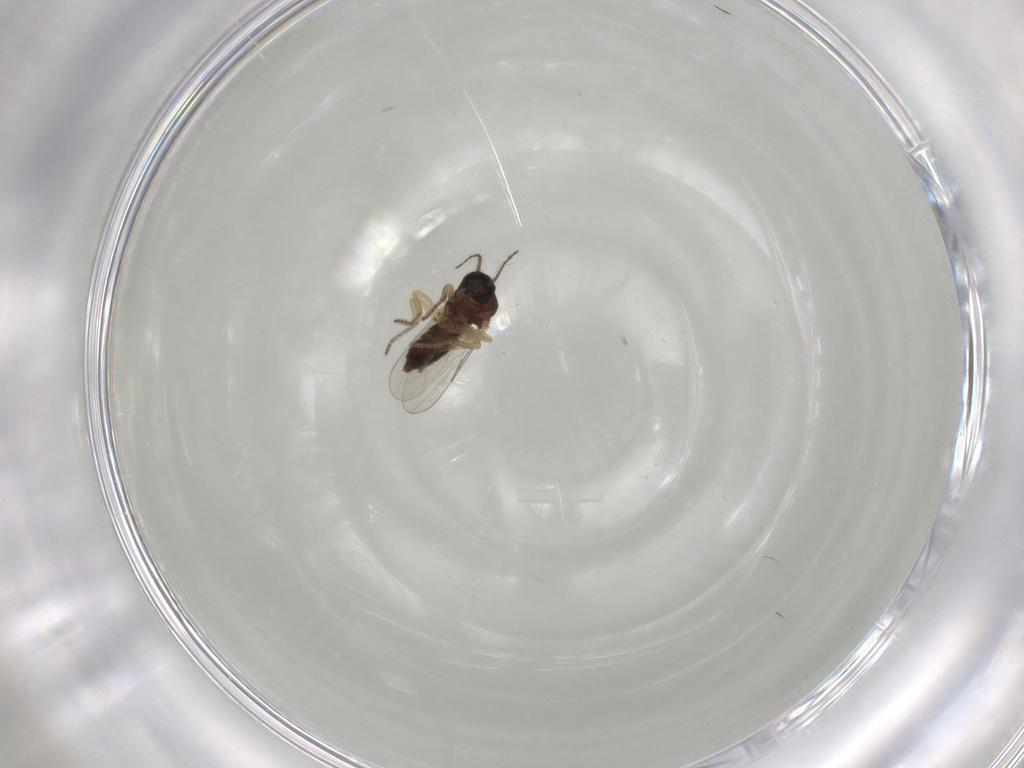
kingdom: Animalia
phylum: Arthropoda
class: Insecta
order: Diptera
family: Ceratopogonidae
